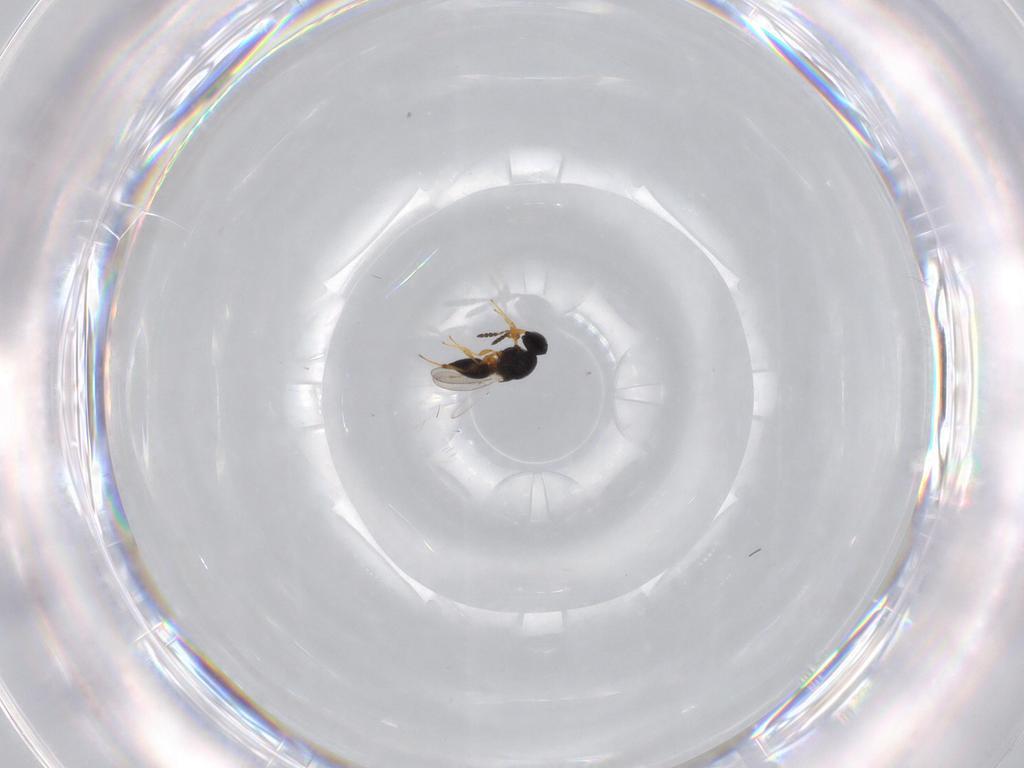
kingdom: Animalia
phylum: Arthropoda
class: Insecta
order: Hymenoptera
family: Platygastridae
